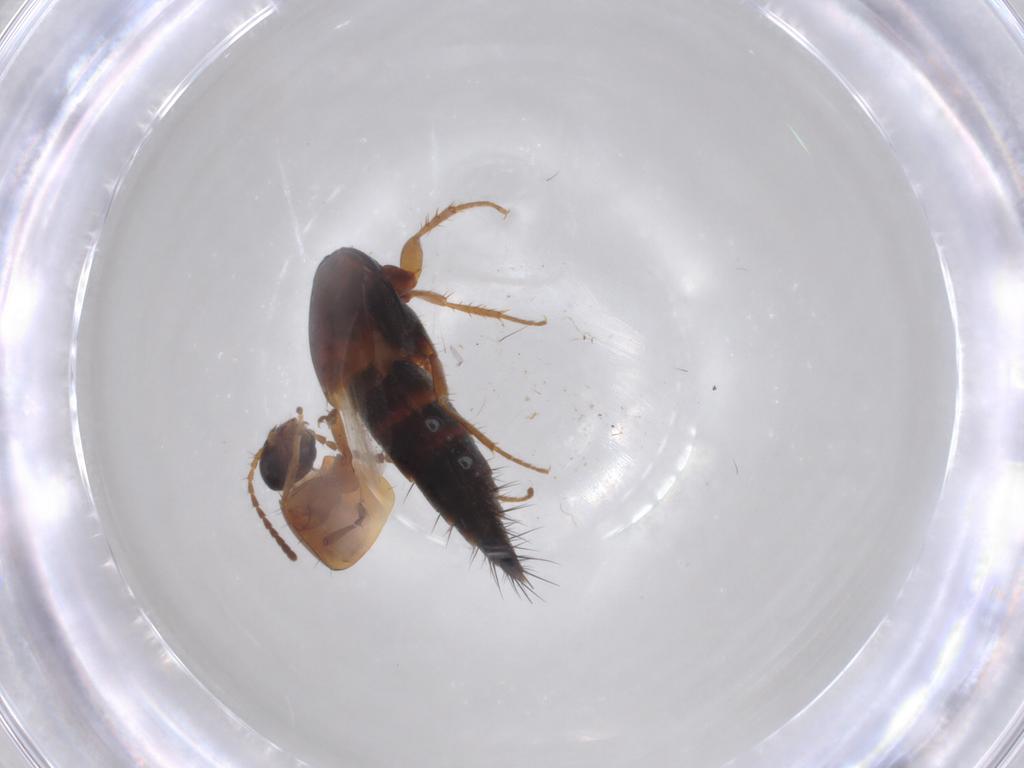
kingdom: Animalia
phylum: Arthropoda
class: Insecta
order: Coleoptera
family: Staphylinidae
